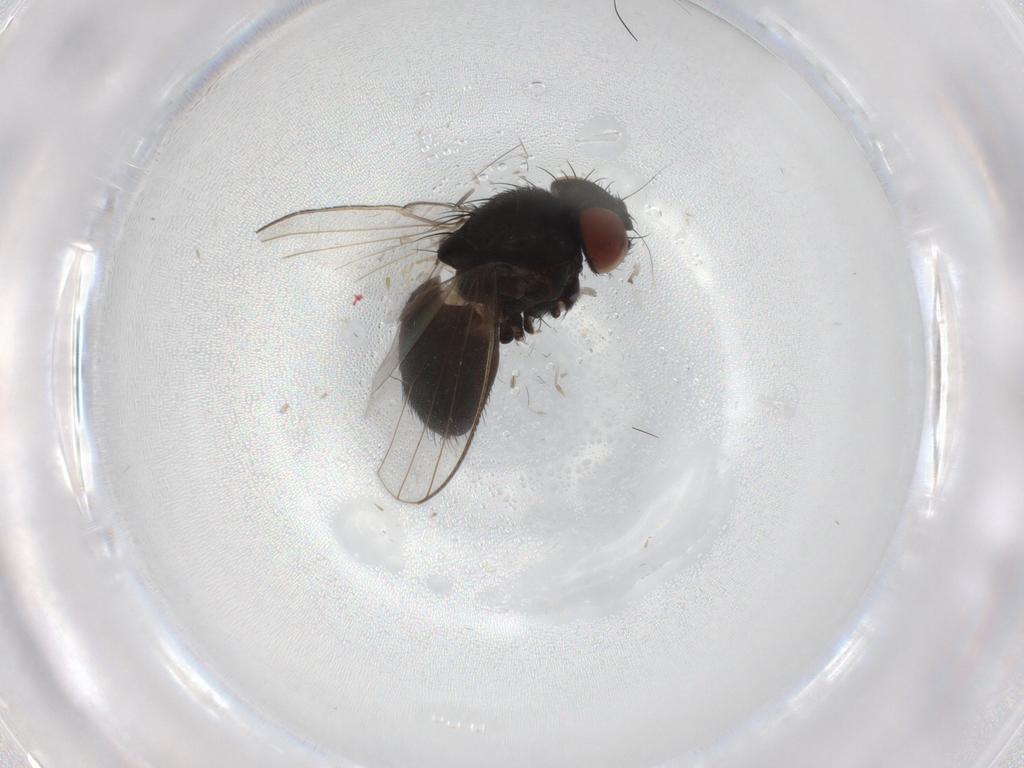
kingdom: Animalia
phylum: Arthropoda
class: Insecta
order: Diptera
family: Milichiidae
